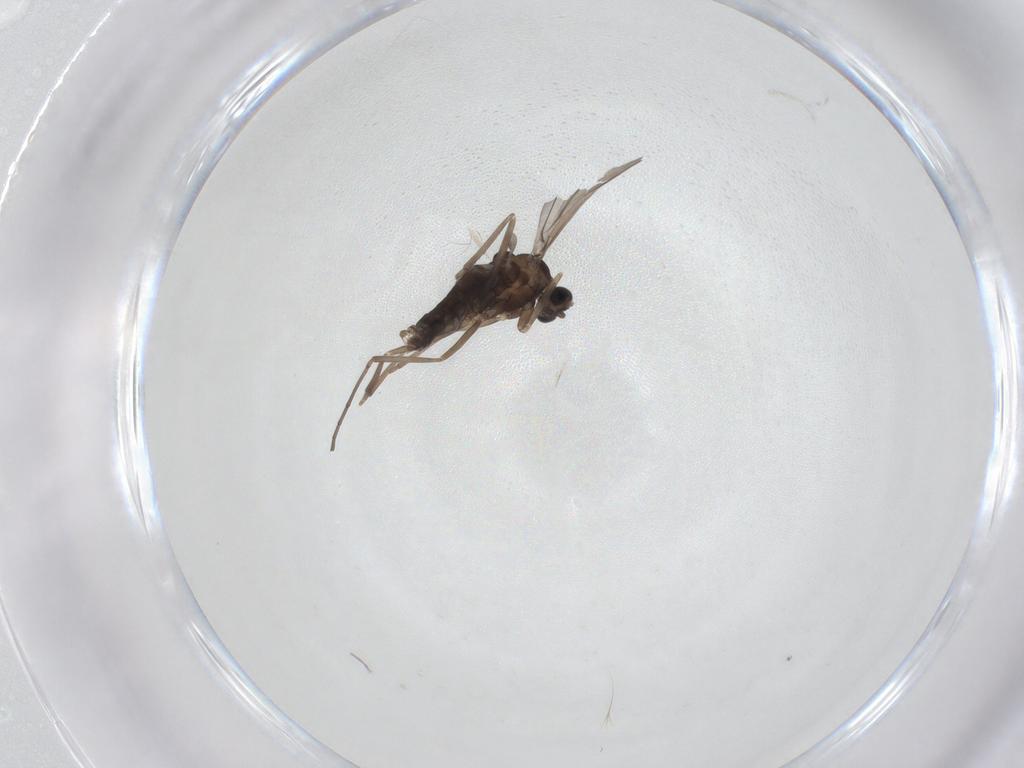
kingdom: Animalia
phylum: Arthropoda
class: Insecta
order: Diptera
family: Cecidomyiidae
